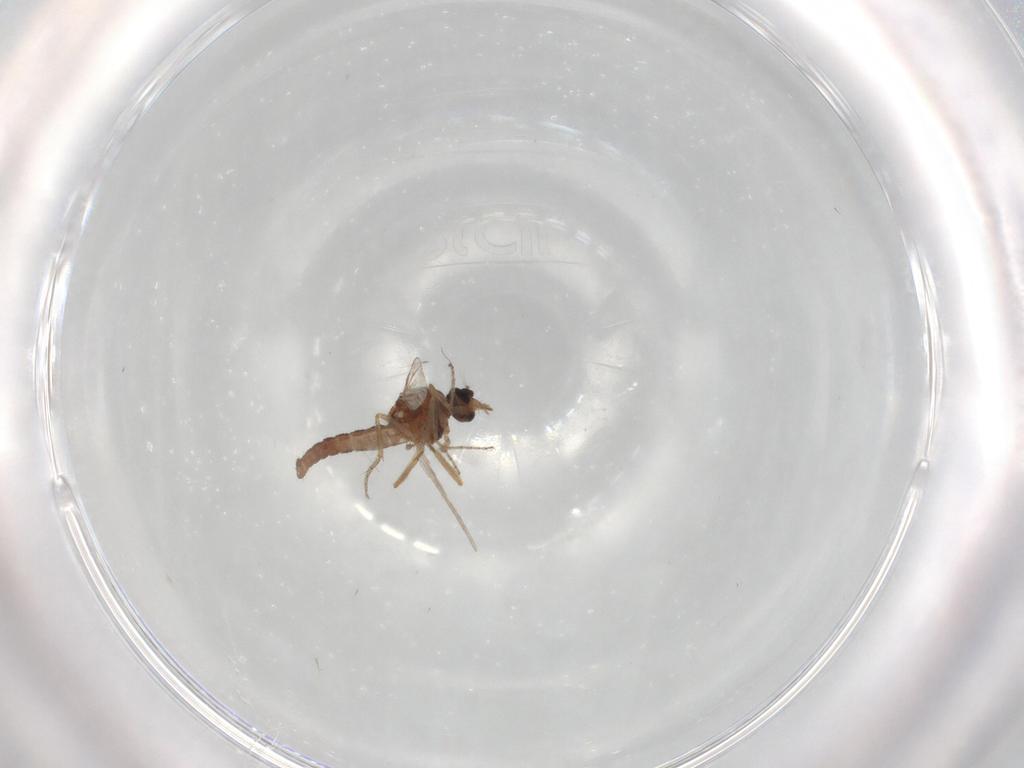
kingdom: Animalia
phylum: Arthropoda
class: Insecta
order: Diptera
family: Ceratopogonidae
